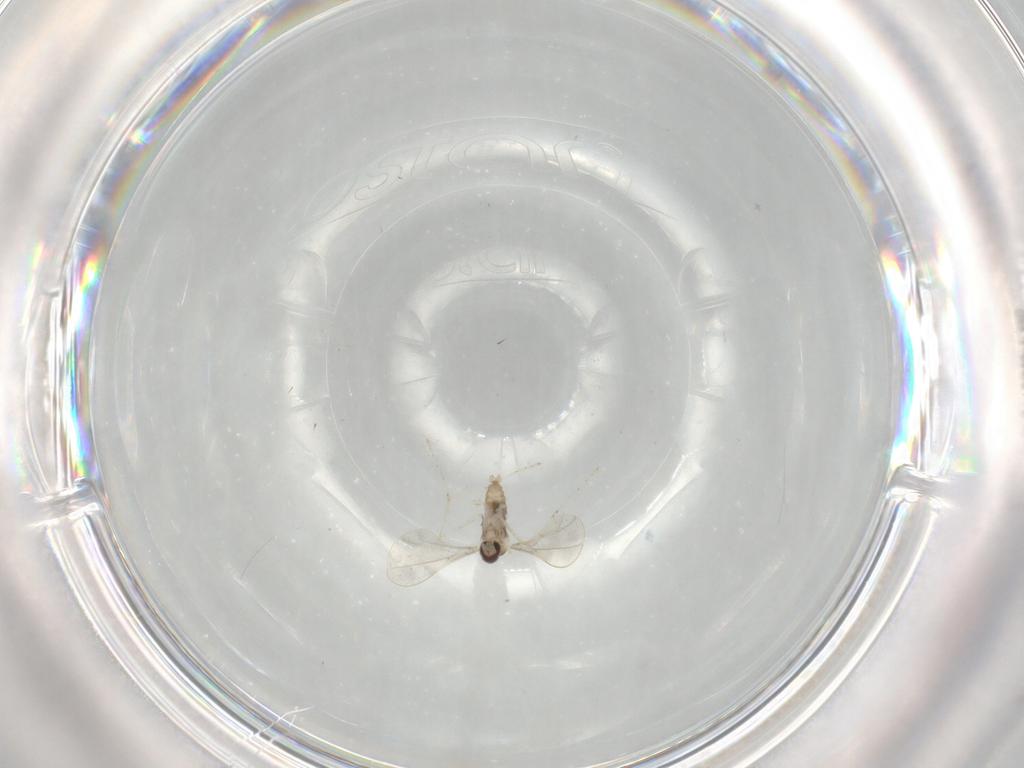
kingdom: Animalia
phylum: Arthropoda
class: Insecta
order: Diptera
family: Cecidomyiidae
